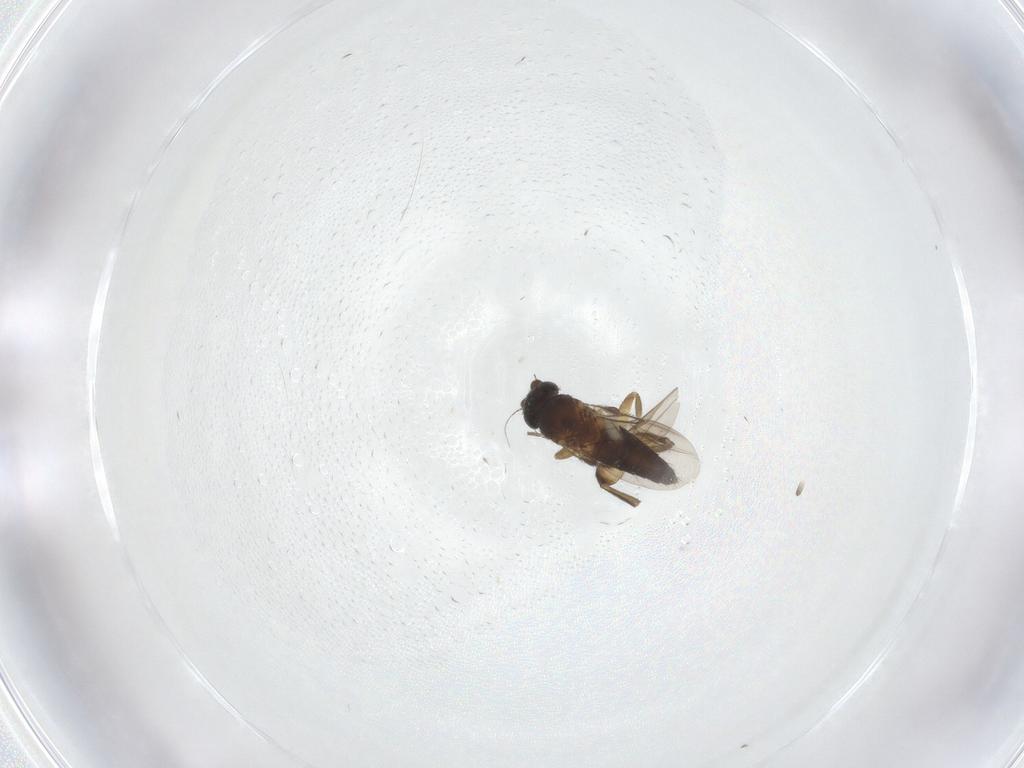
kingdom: Animalia
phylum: Arthropoda
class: Insecta
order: Diptera
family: Phoridae
